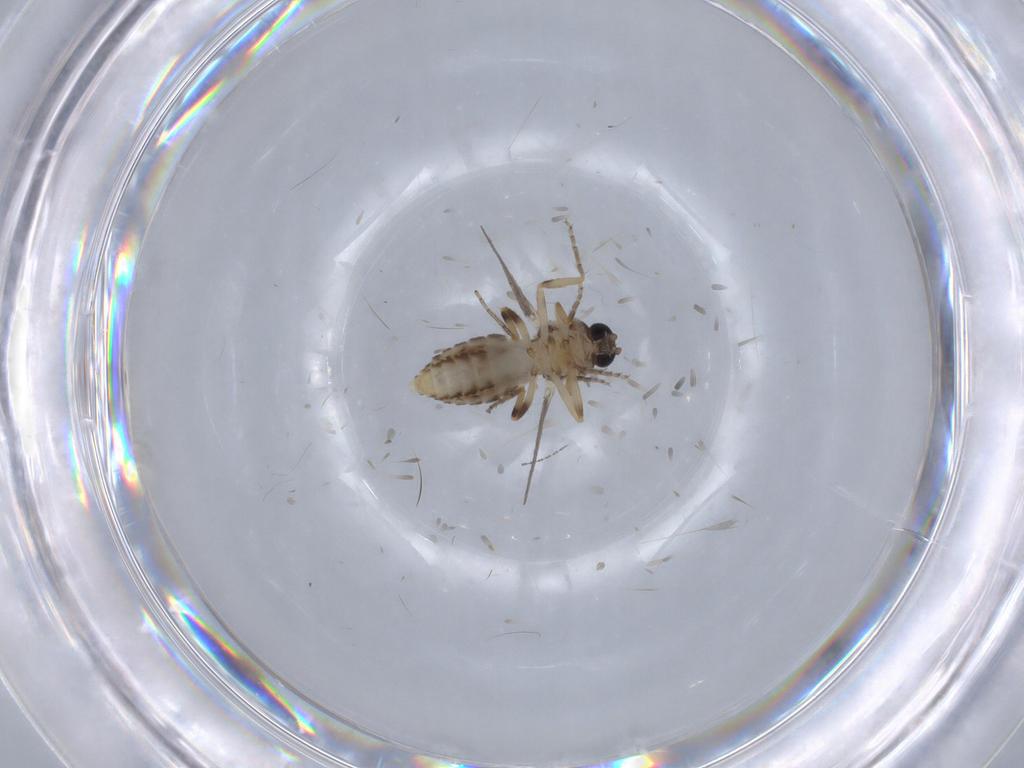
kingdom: Animalia
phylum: Arthropoda
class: Insecta
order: Diptera
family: Ceratopogonidae
